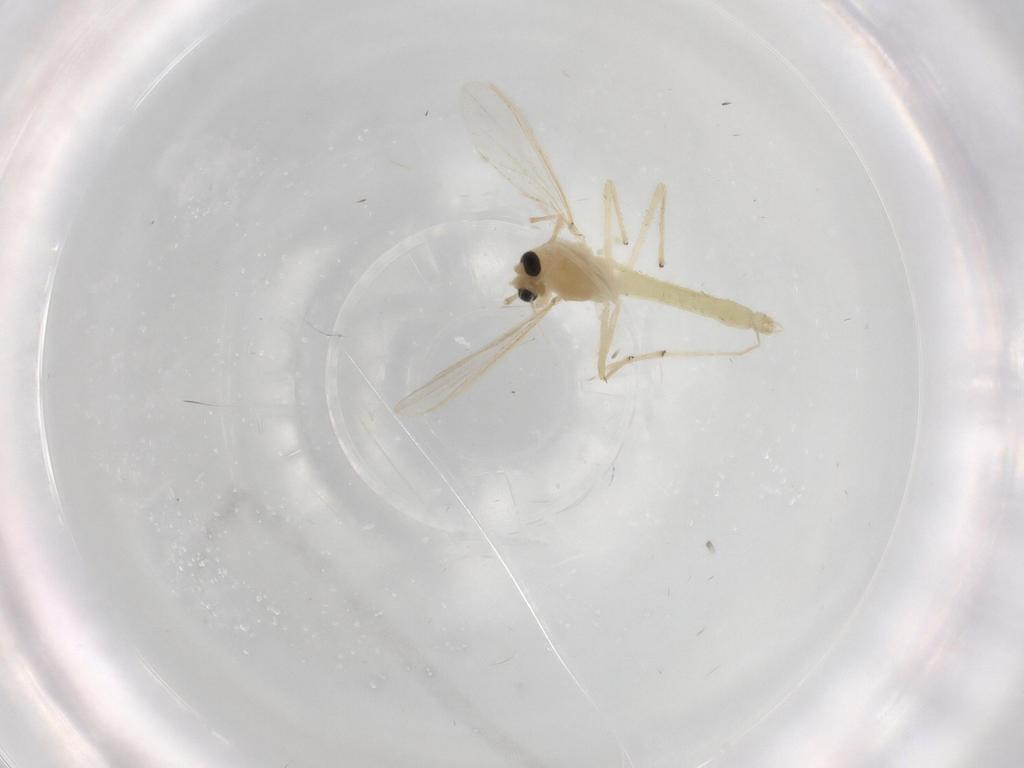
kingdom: Animalia
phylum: Arthropoda
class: Insecta
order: Diptera
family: Chironomidae
